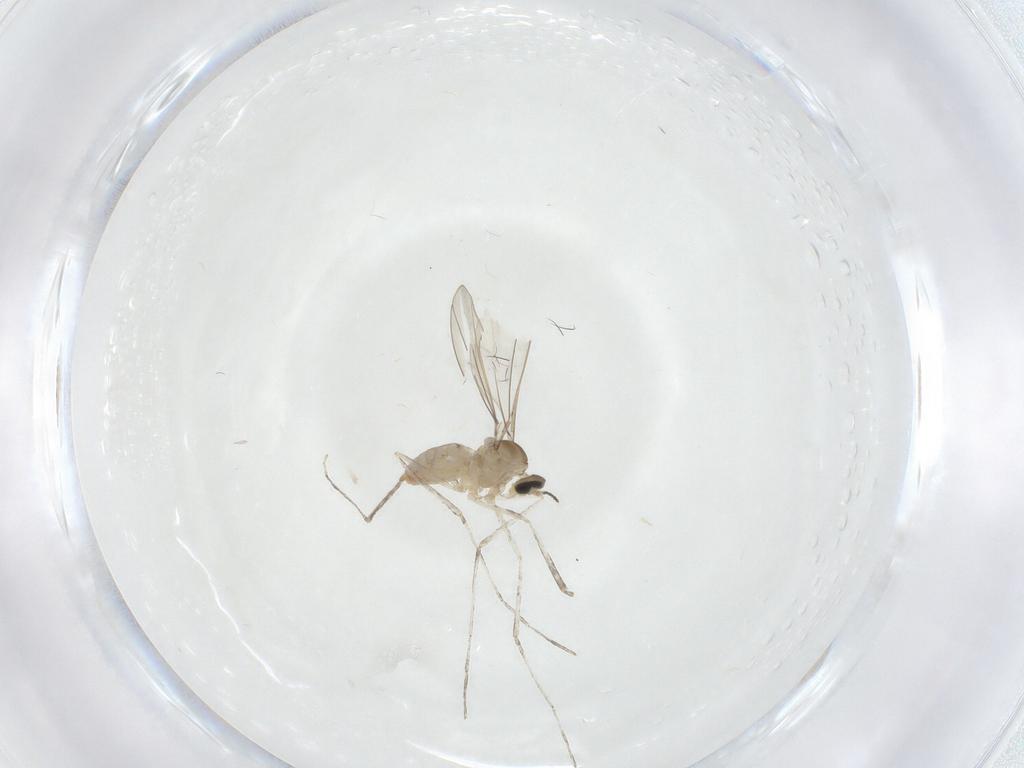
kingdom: Animalia
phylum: Arthropoda
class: Insecta
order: Diptera
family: Cecidomyiidae
